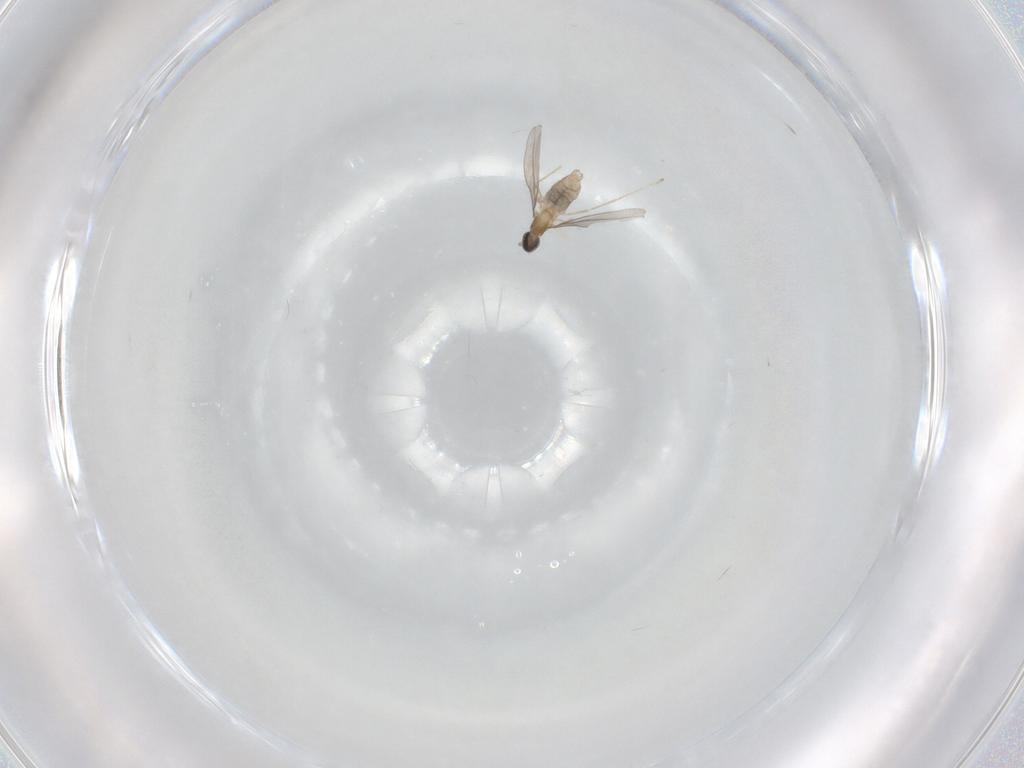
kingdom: Animalia
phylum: Arthropoda
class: Insecta
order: Diptera
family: Cecidomyiidae
